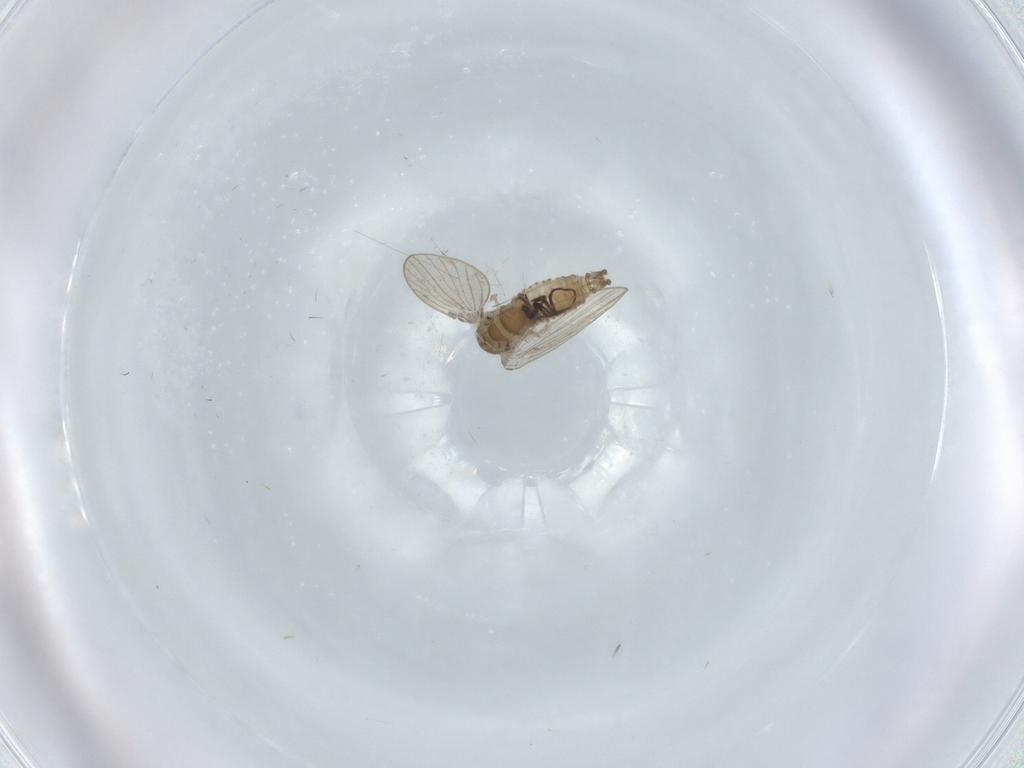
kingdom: Animalia
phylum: Arthropoda
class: Insecta
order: Diptera
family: Psychodidae
